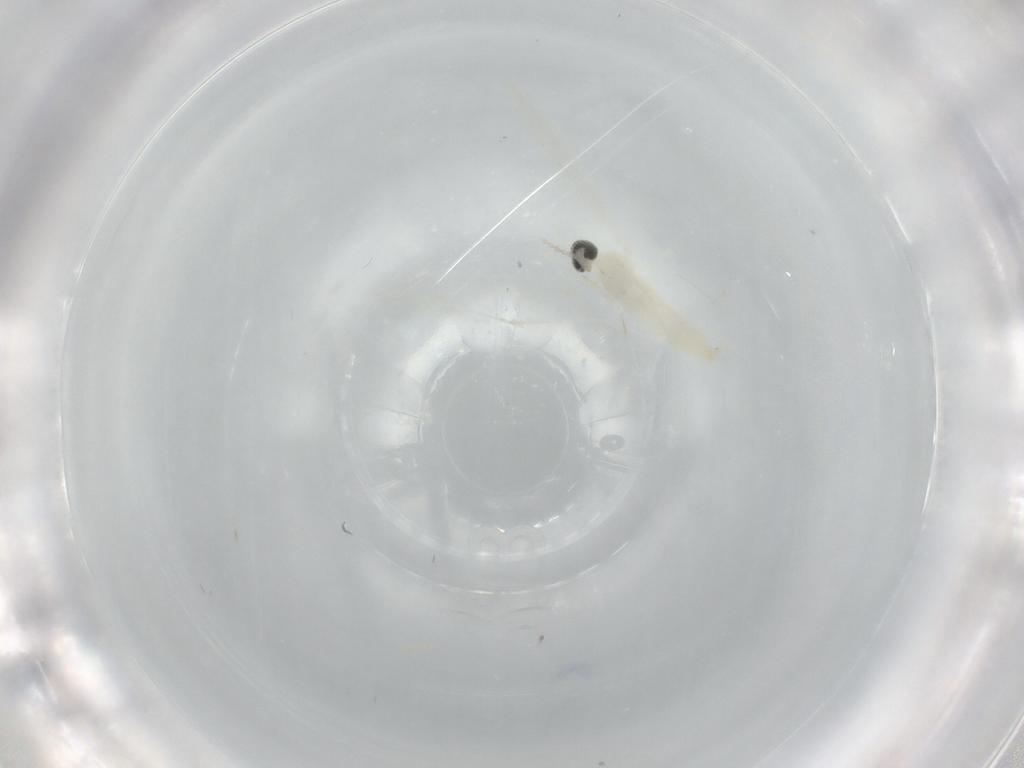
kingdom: Animalia
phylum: Arthropoda
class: Insecta
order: Diptera
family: Cecidomyiidae
